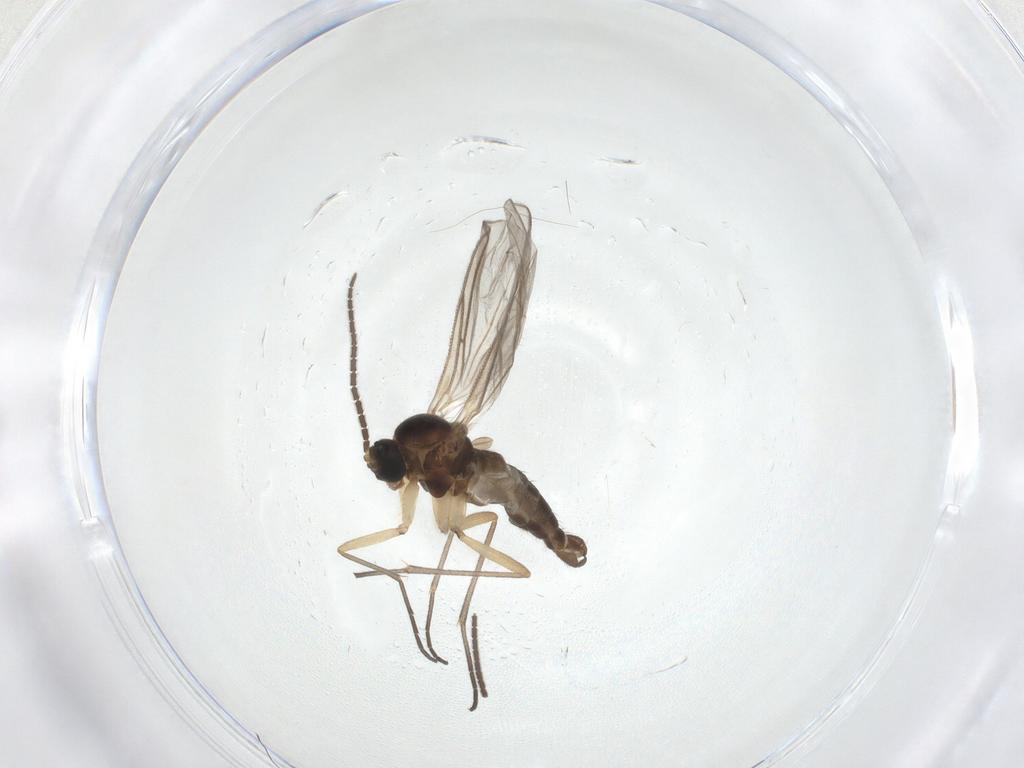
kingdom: Animalia
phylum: Arthropoda
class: Insecta
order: Diptera
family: Sciaridae
